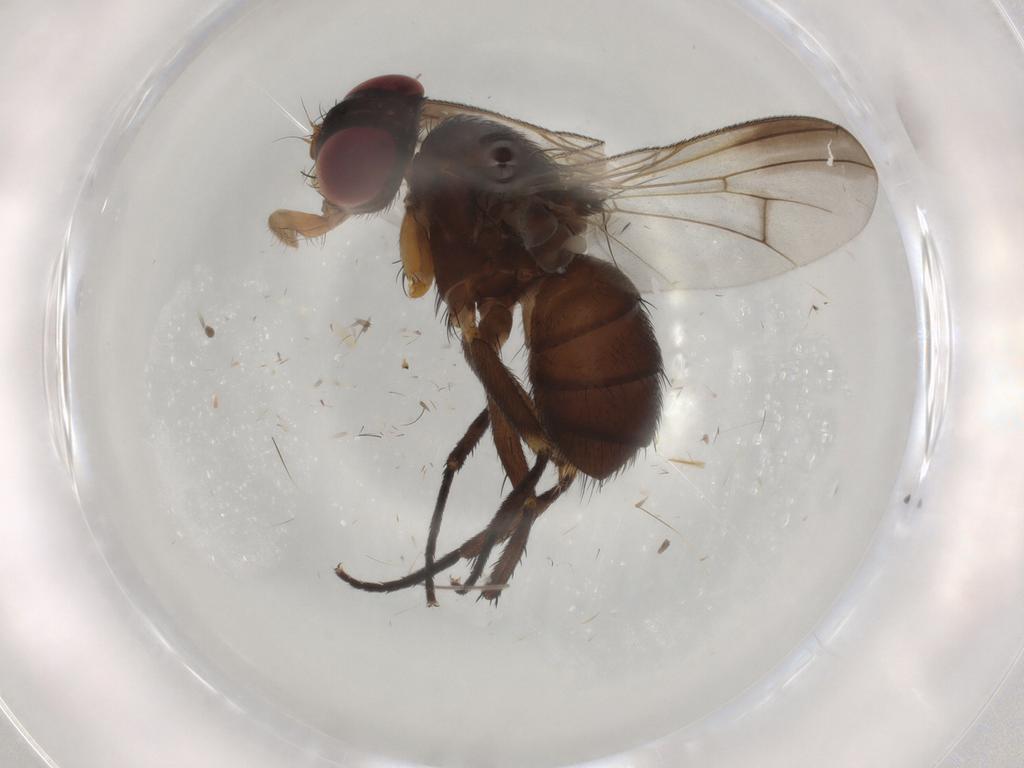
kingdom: Animalia
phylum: Arthropoda
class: Insecta
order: Diptera
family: Calliphoridae
